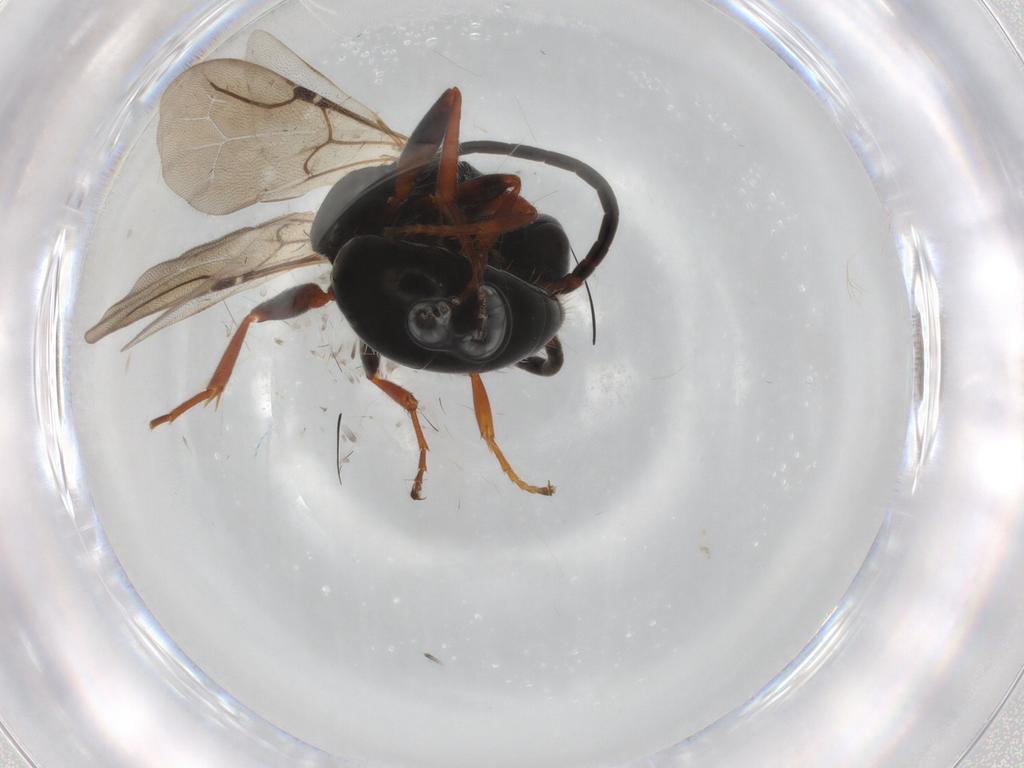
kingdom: Animalia
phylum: Arthropoda
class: Insecta
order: Hymenoptera
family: Bethylidae
